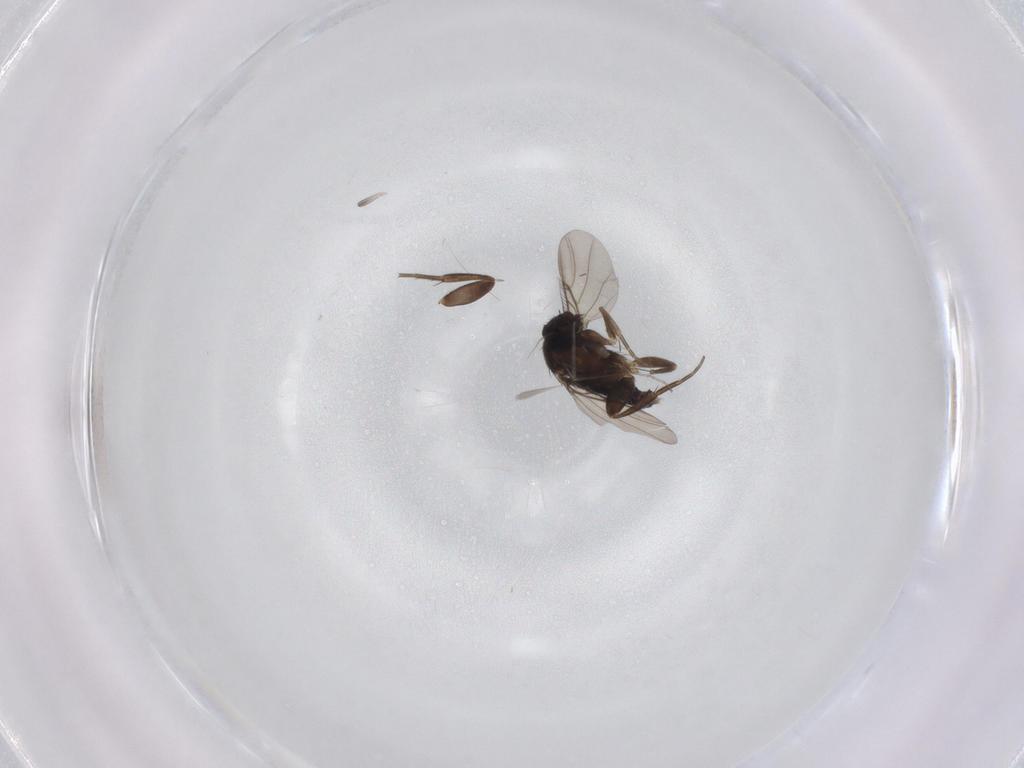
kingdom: Animalia
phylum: Arthropoda
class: Insecta
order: Diptera
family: Phoridae
